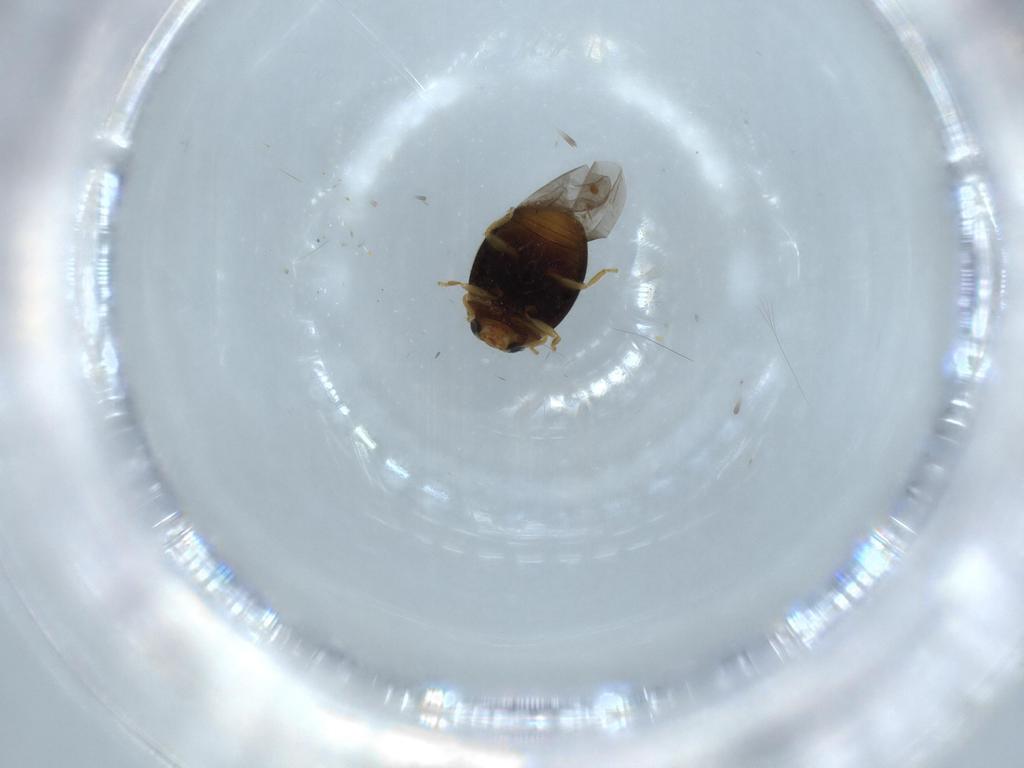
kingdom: Animalia
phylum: Arthropoda
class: Insecta
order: Coleoptera
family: Coccinellidae
